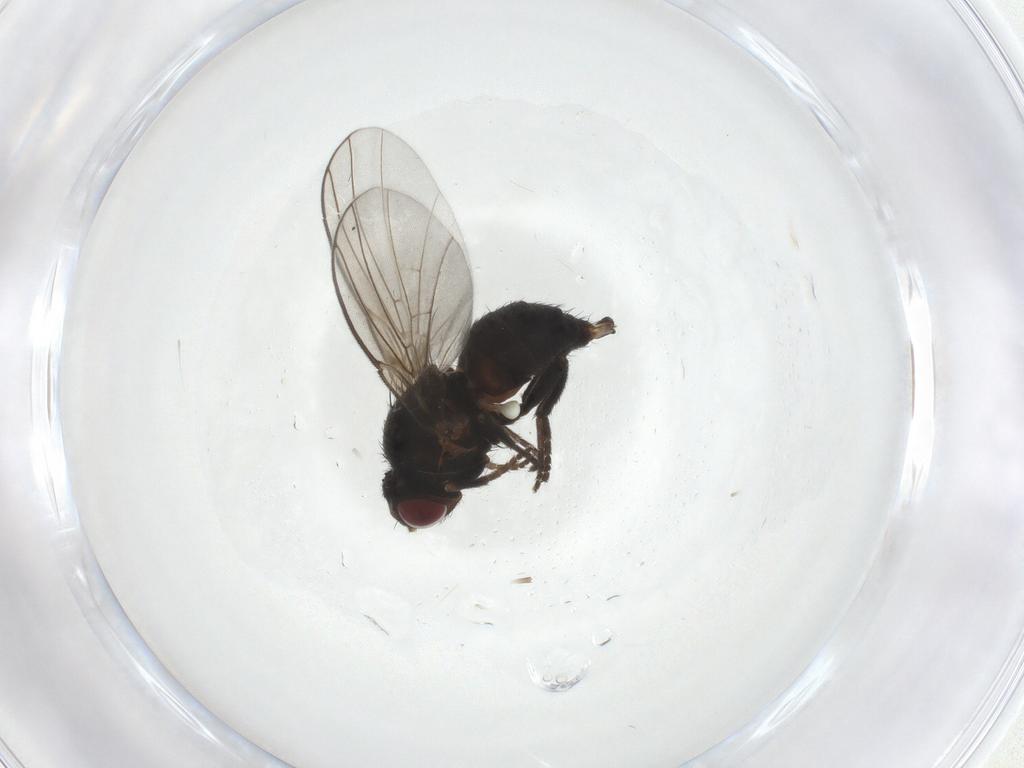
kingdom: Animalia
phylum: Arthropoda
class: Insecta
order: Diptera
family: Agromyzidae
